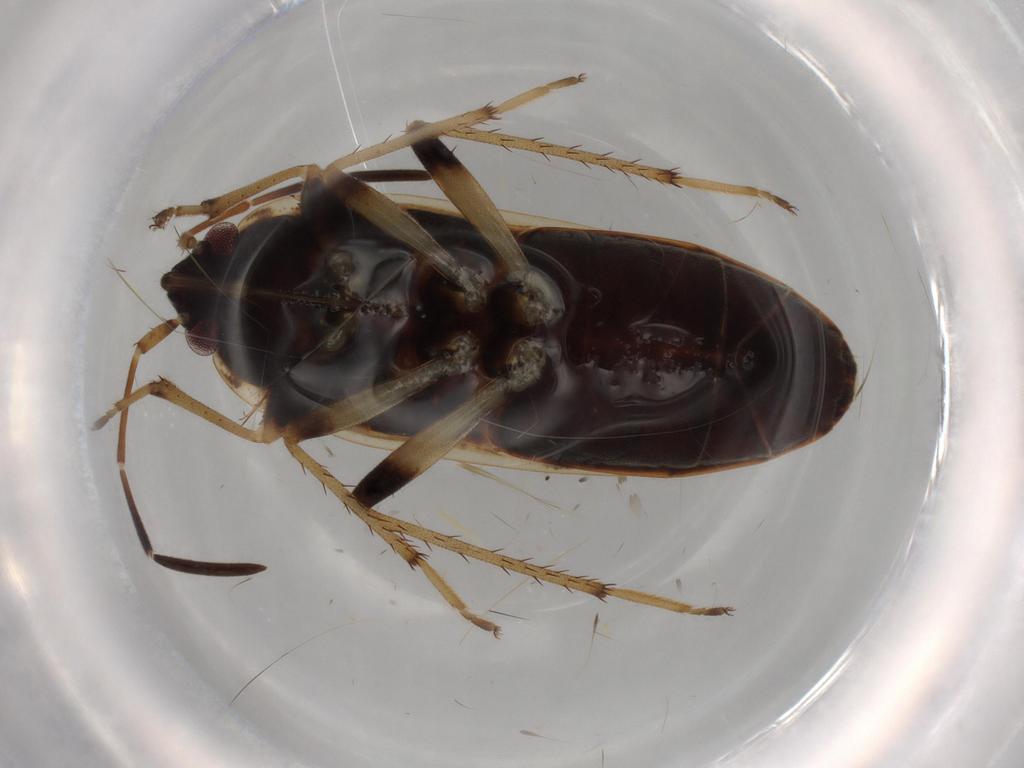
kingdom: Animalia
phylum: Arthropoda
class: Insecta
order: Hemiptera
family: Rhyparochromidae
